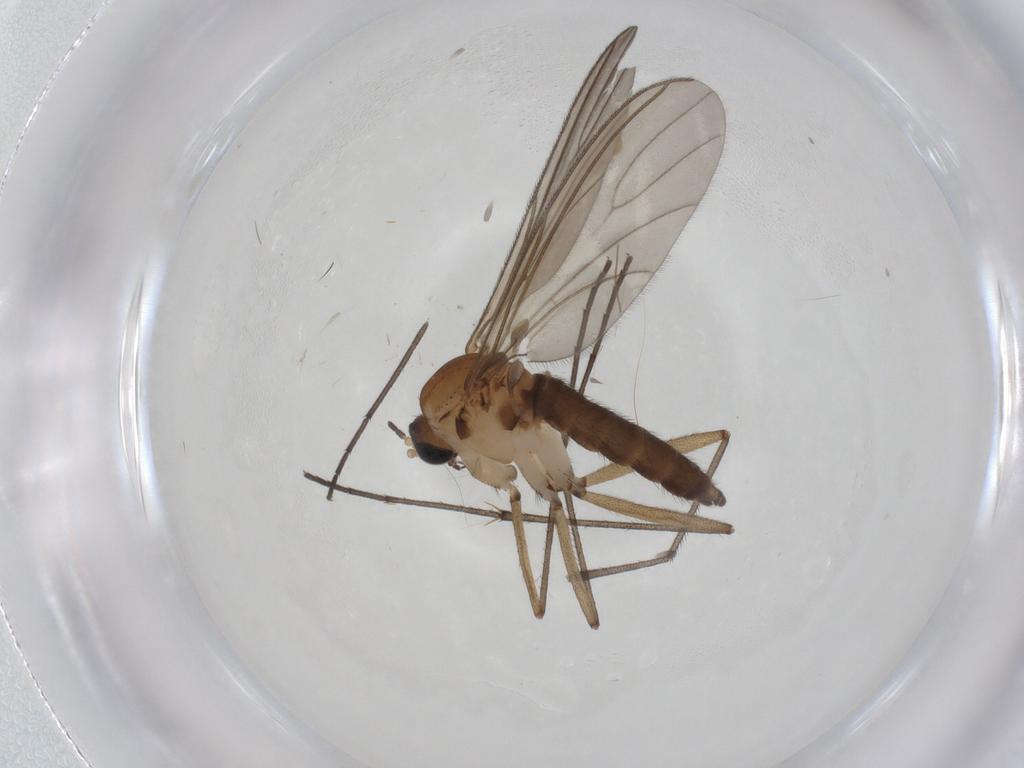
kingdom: Animalia
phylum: Arthropoda
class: Insecta
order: Diptera
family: Sciaridae
